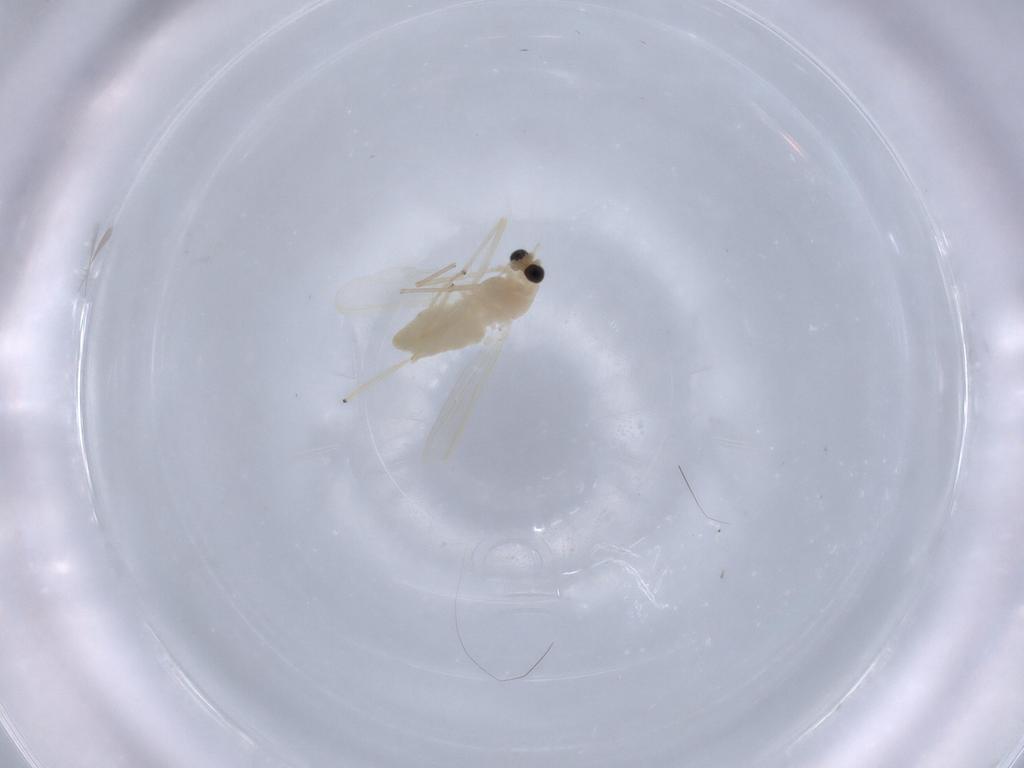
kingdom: Animalia
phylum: Arthropoda
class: Insecta
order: Diptera
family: Chironomidae
